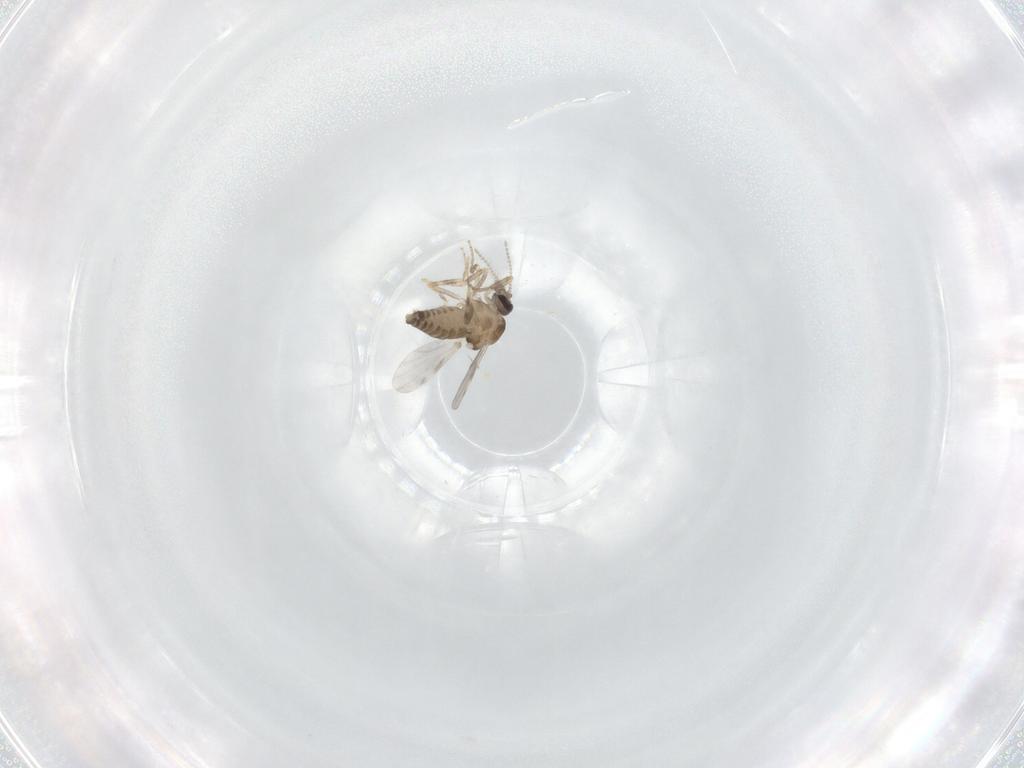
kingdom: Animalia
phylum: Arthropoda
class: Insecta
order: Diptera
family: Ceratopogonidae
